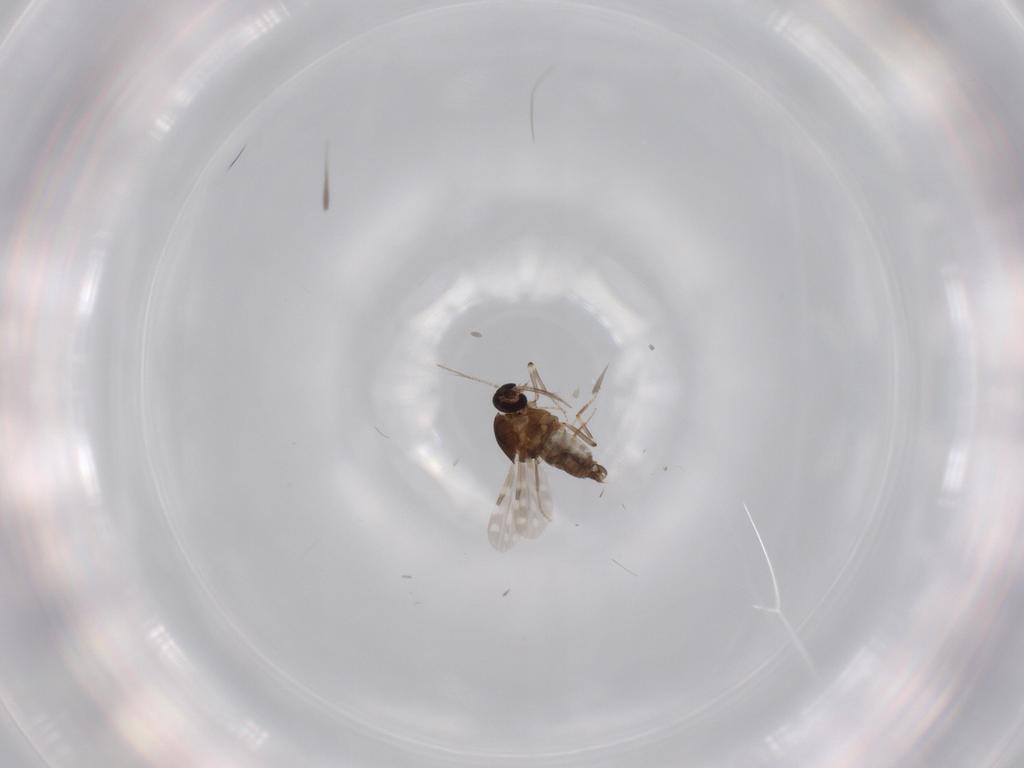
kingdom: Animalia
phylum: Arthropoda
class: Insecta
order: Diptera
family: Ceratopogonidae
